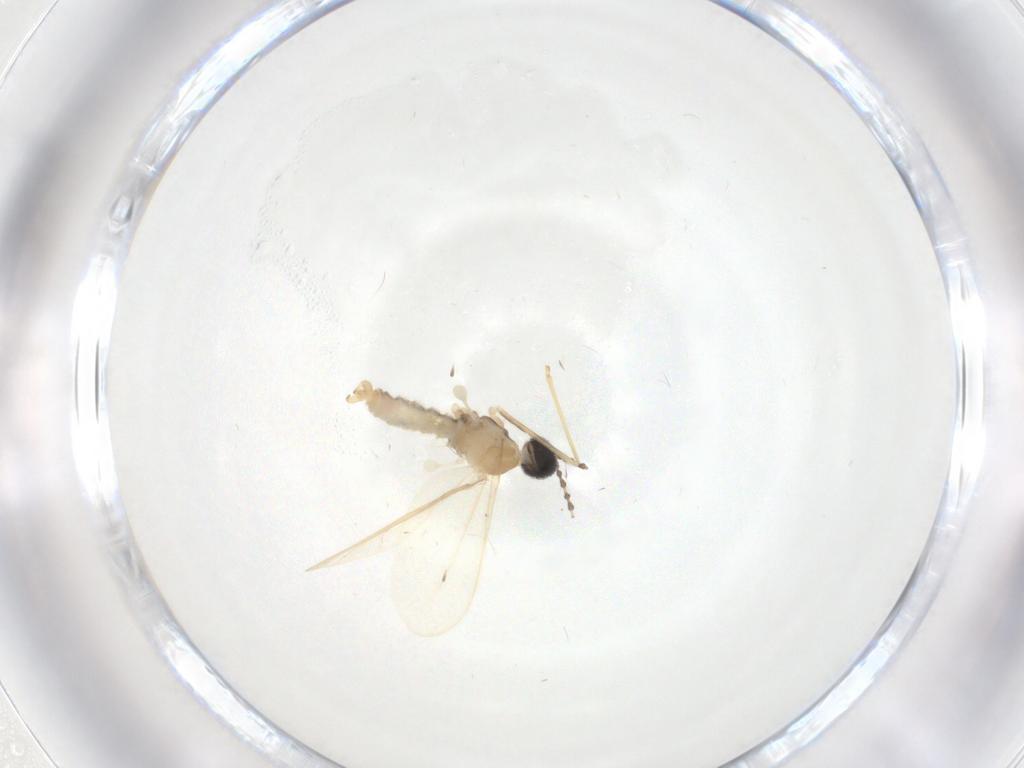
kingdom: Animalia
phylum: Arthropoda
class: Insecta
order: Diptera
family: Cecidomyiidae
